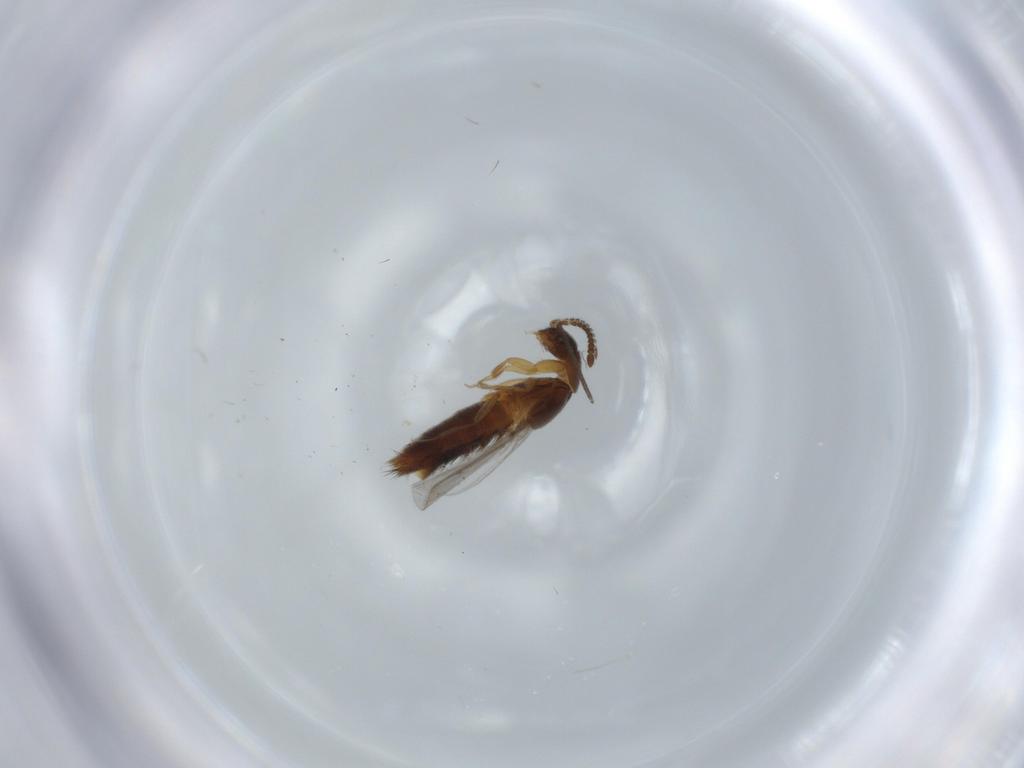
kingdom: Animalia
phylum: Arthropoda
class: Insecta
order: Coleoptera
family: Staphylinidae
